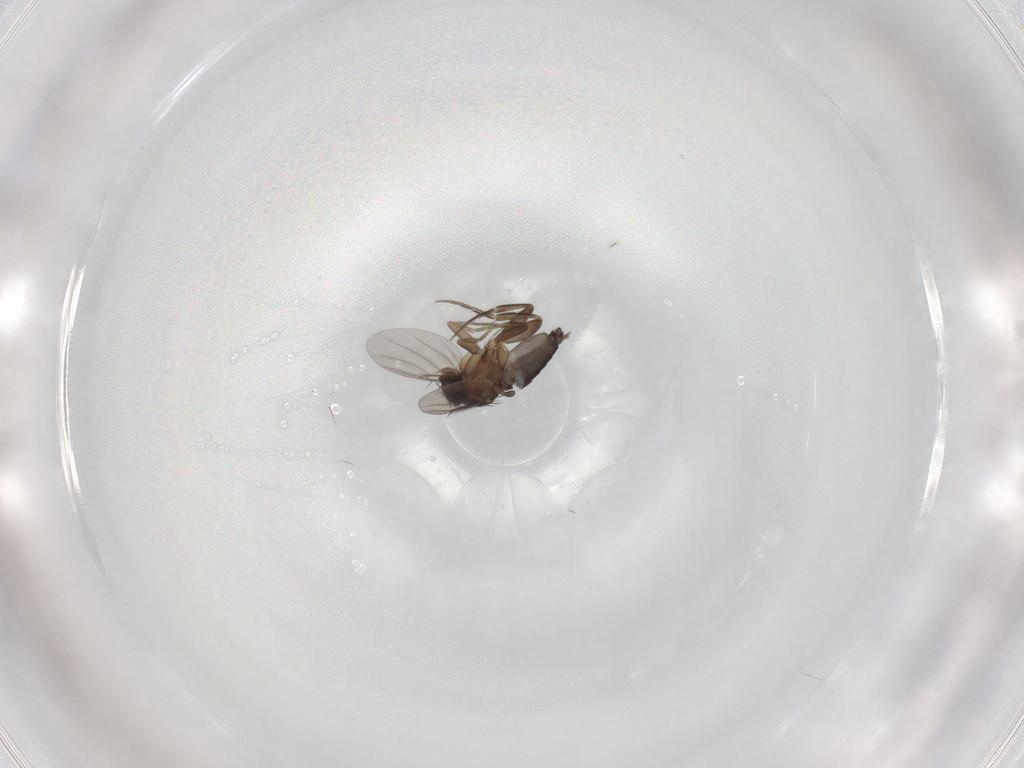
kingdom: Animalia
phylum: Arthropoda
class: Insecta
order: Diptera
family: Phoridae
